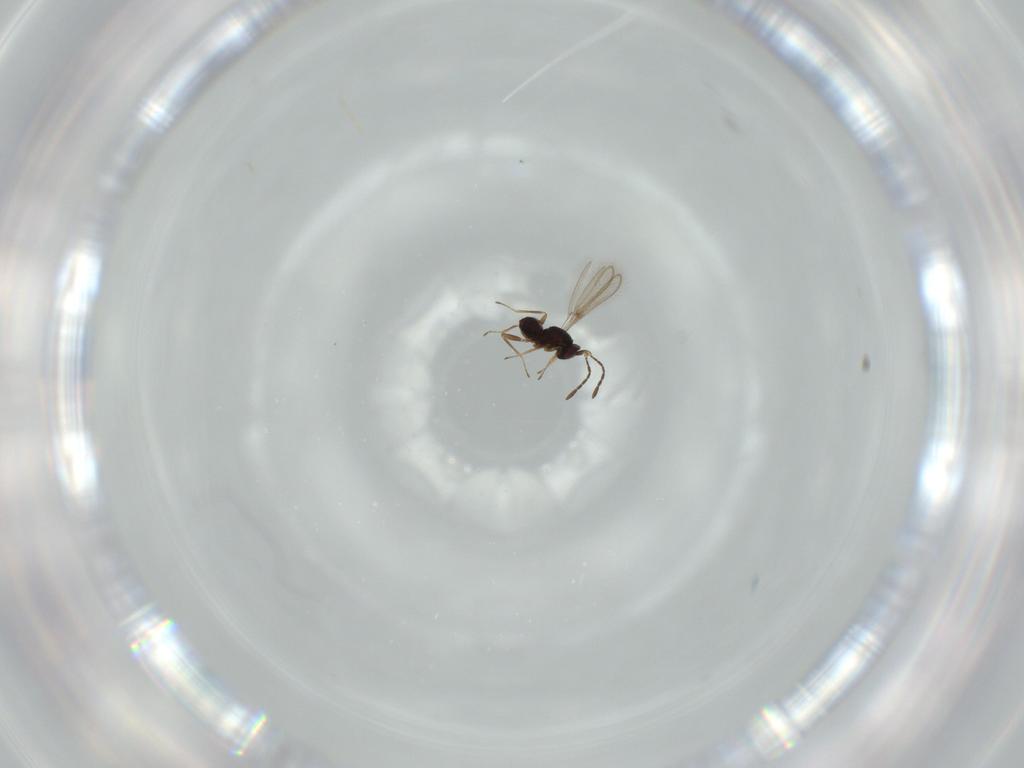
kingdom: Animalia
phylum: Arthropoda
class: Insecta
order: Hymenoptera
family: Mymaridae
